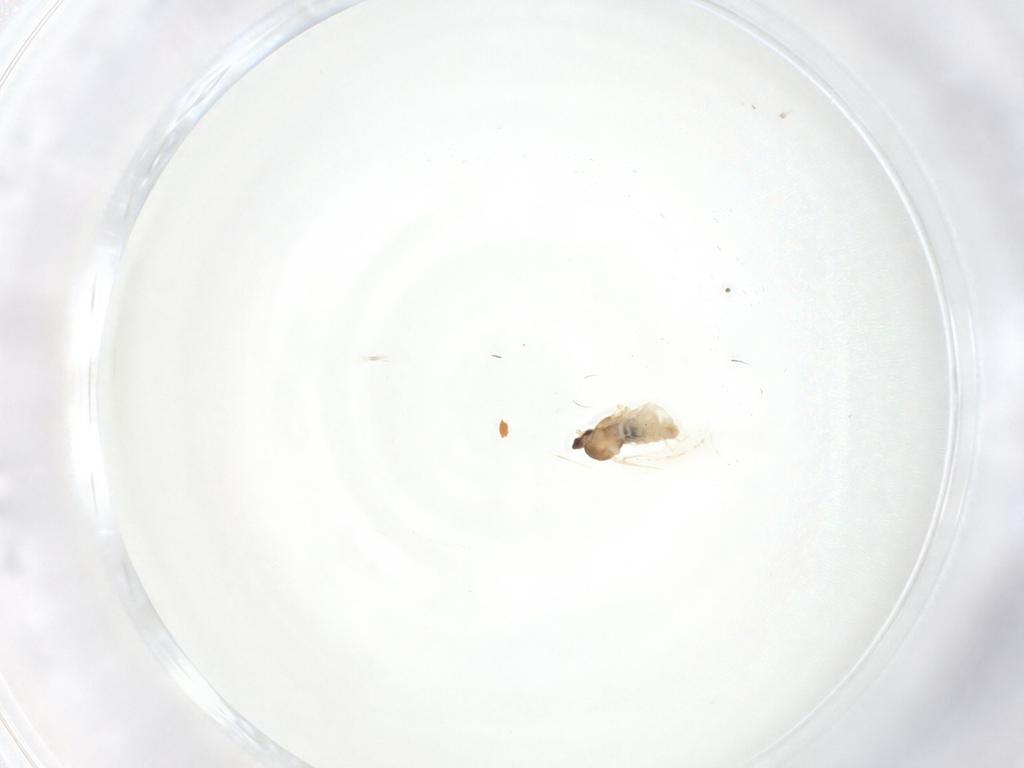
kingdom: Animalia
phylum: Arthropoda
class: Insecta
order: Diptera
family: Cecidomyiidae
